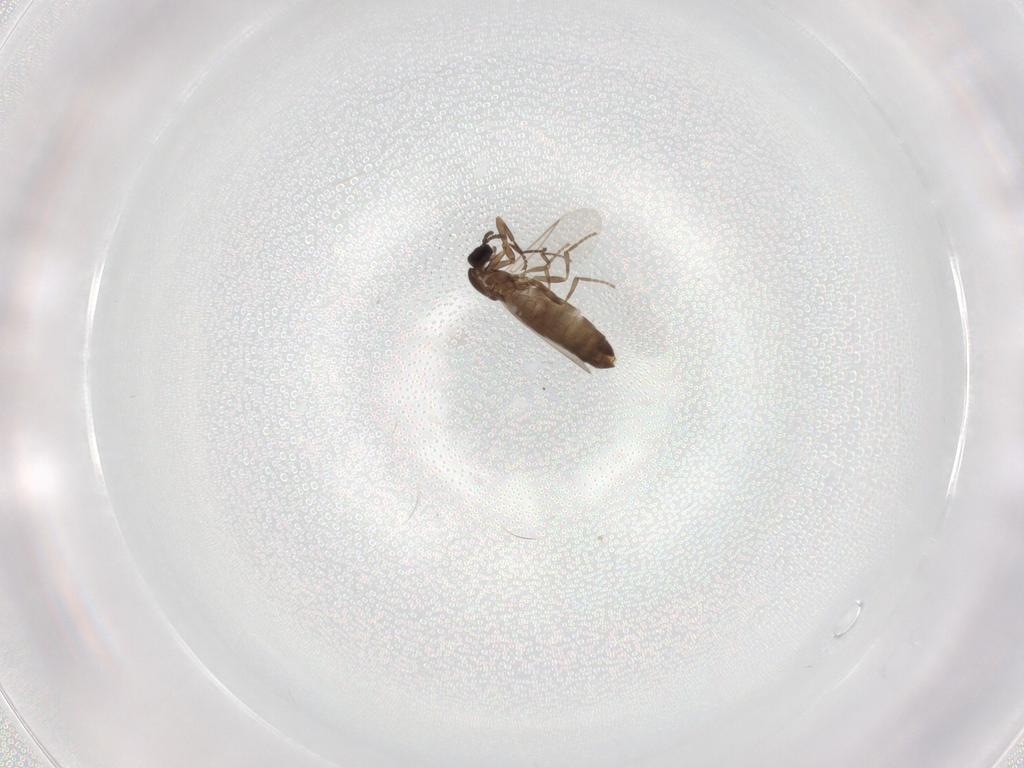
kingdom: Animalia
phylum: Arthropoda
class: Insecta
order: Diptera
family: Scatopsidae
